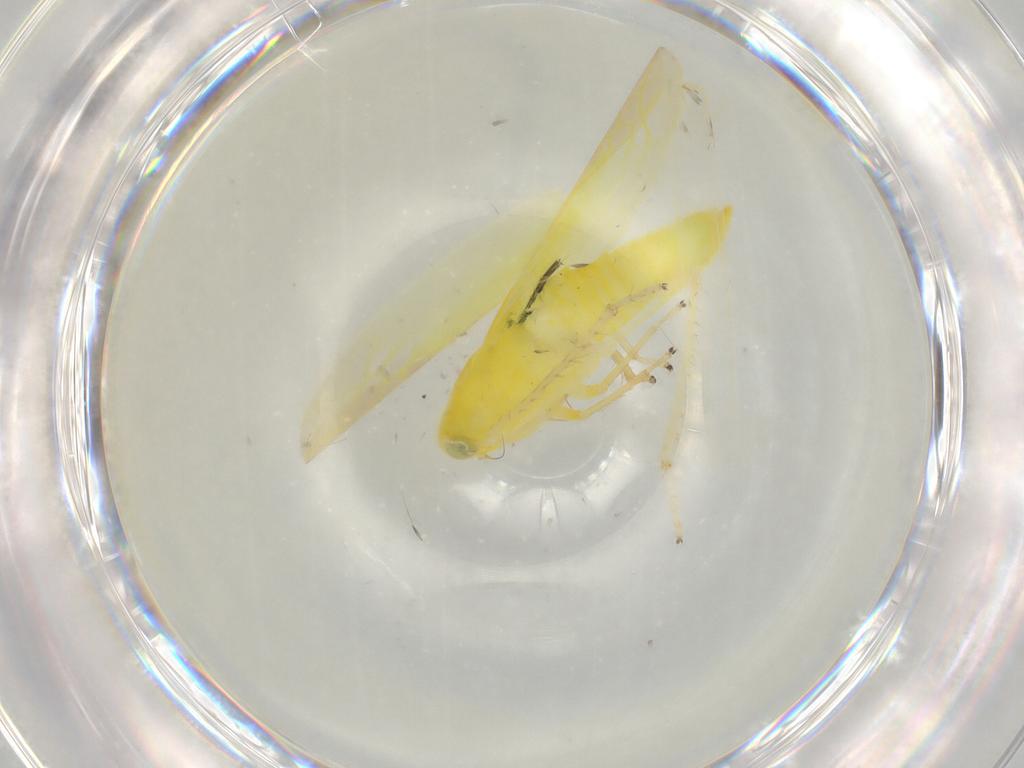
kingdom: Animalia
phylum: Arthropoda
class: Insecta
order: Hemiptera
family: Cicadellidae
